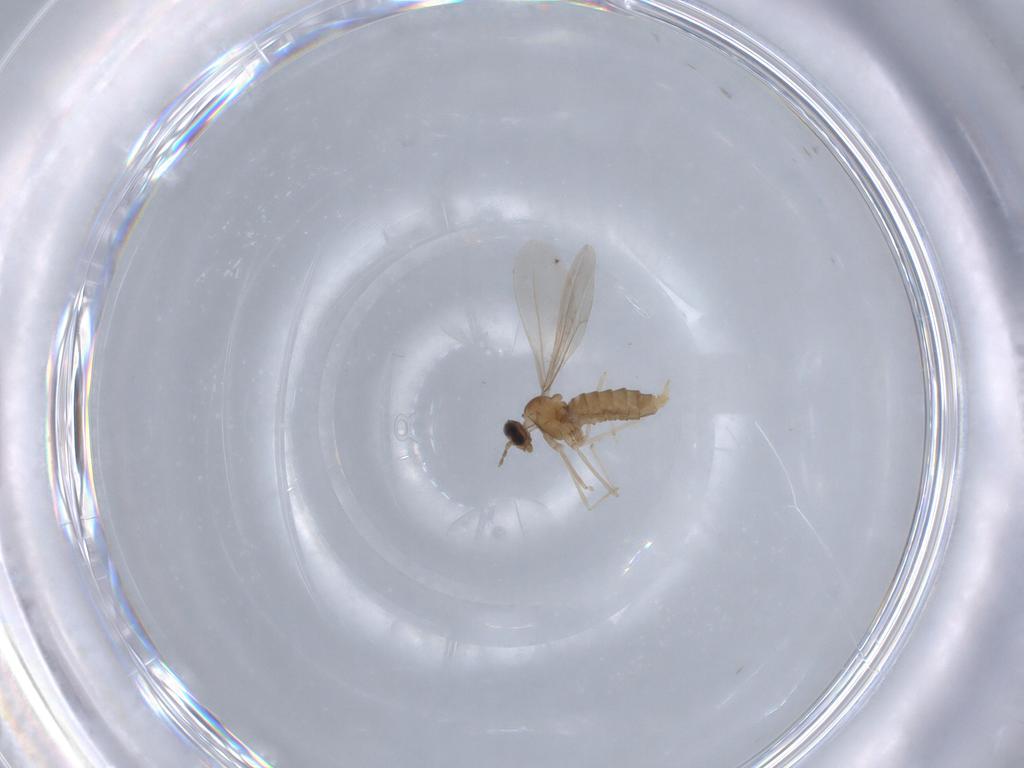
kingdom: Animalia
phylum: Arthropoda
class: Insecta
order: Diptera
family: Cecidomyiidae
